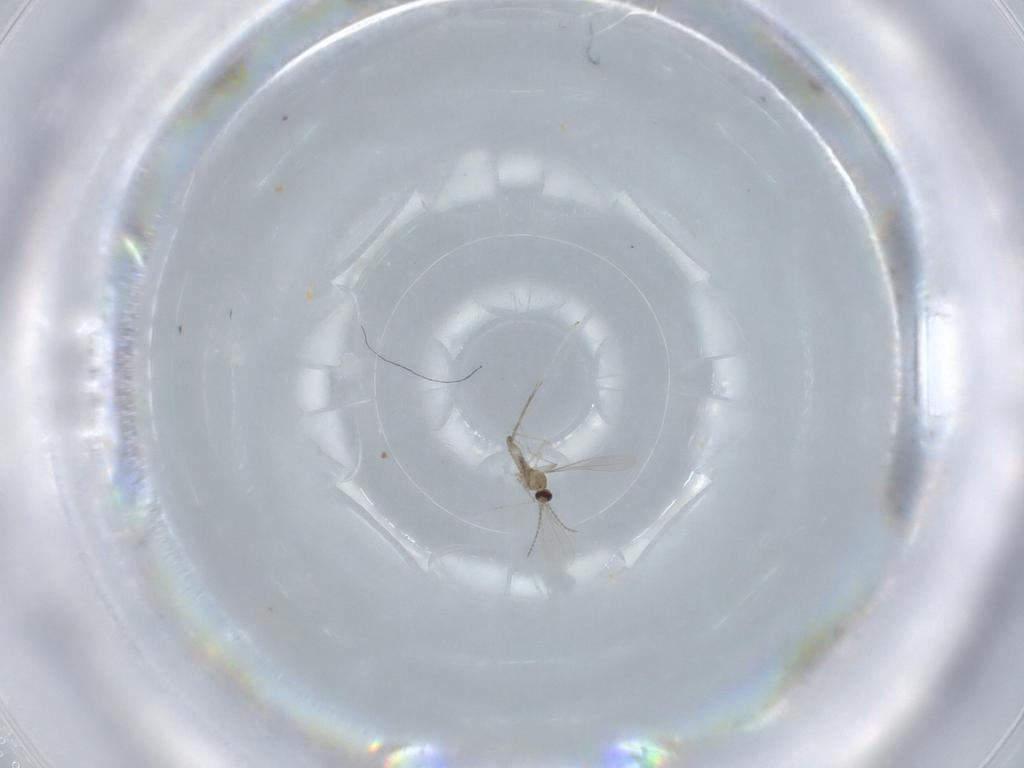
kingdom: Animalia
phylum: Arthropoda
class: Insecta
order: Diptera
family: Cecidomyiidae
